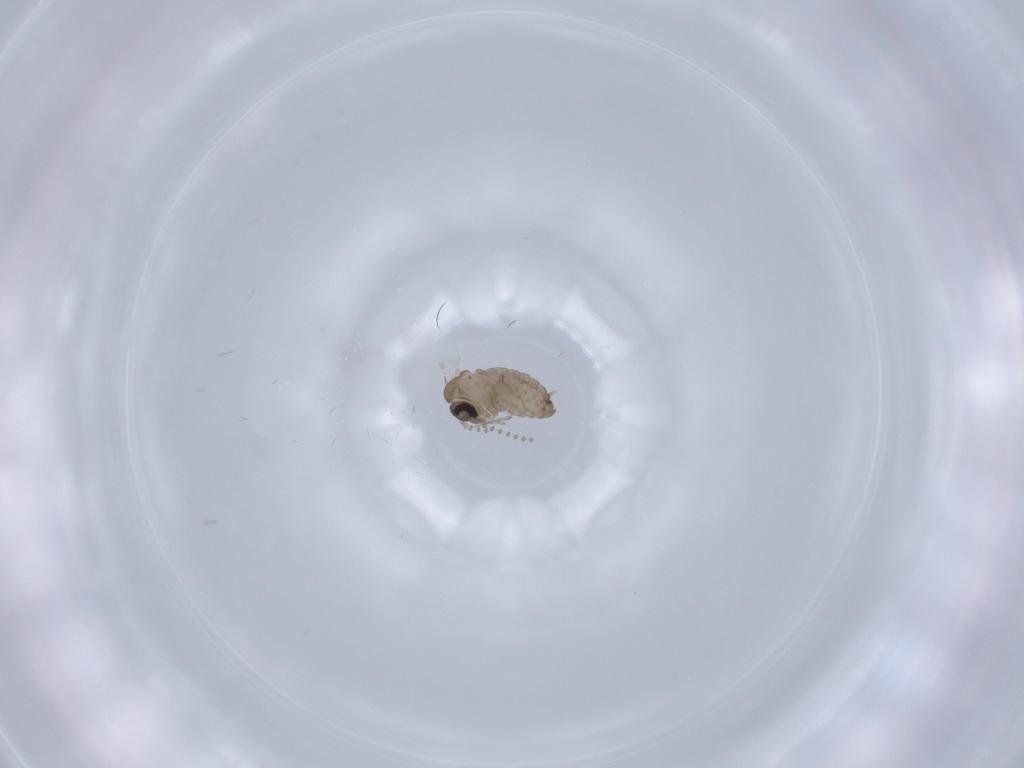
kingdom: Animalia
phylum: Arthropoda
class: Insecta
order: Diptera
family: Psychodidae
